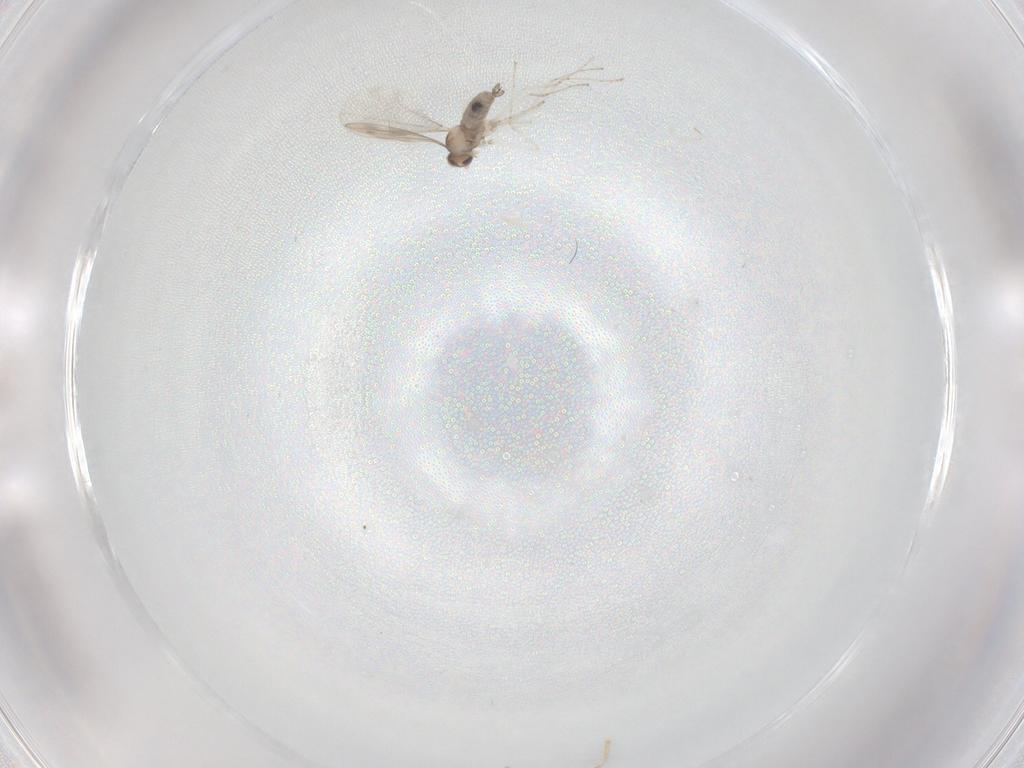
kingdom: Animalia
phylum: Arthropoda
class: Insecta
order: Diptera
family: Cecidomyiidae
